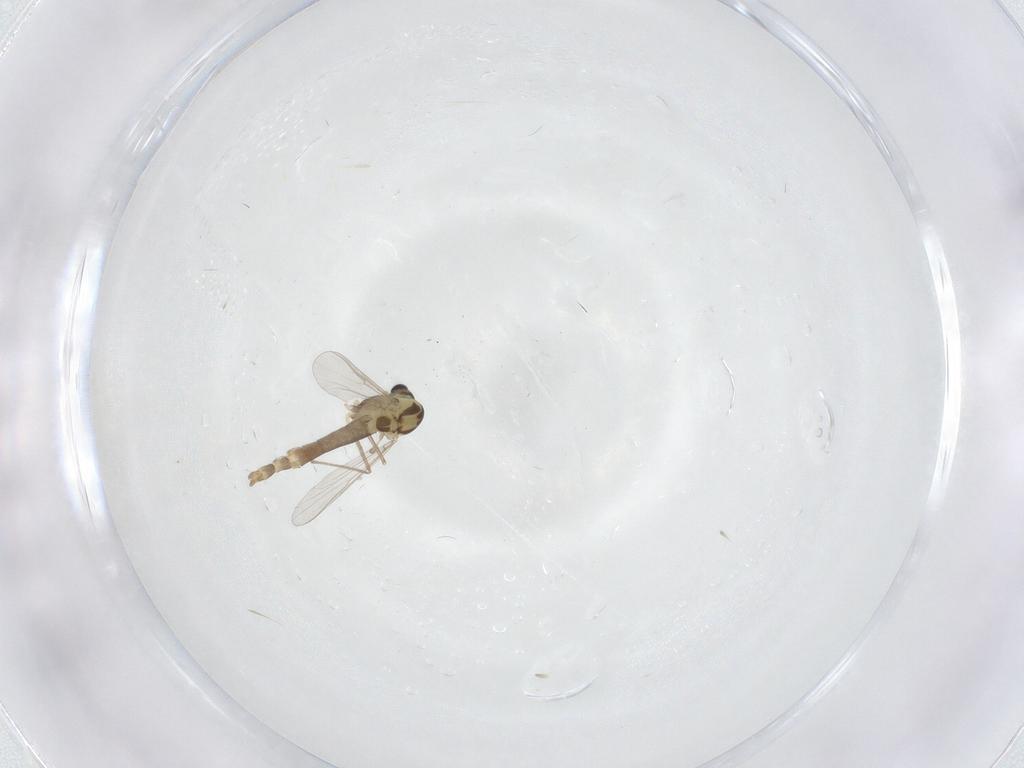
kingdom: Animalia
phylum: Arthropoda
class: Insecta
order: Diptera
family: Chironomidae
